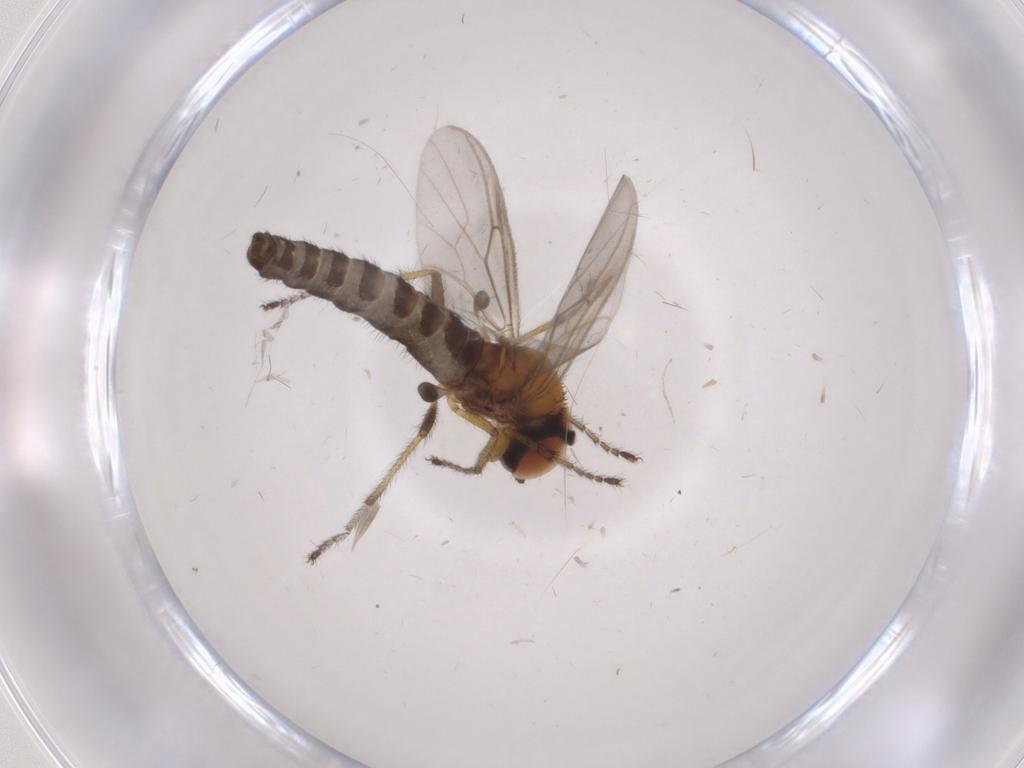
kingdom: Animalia
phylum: Arthropoda
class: Insecta
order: Diptera
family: Bibionidae
